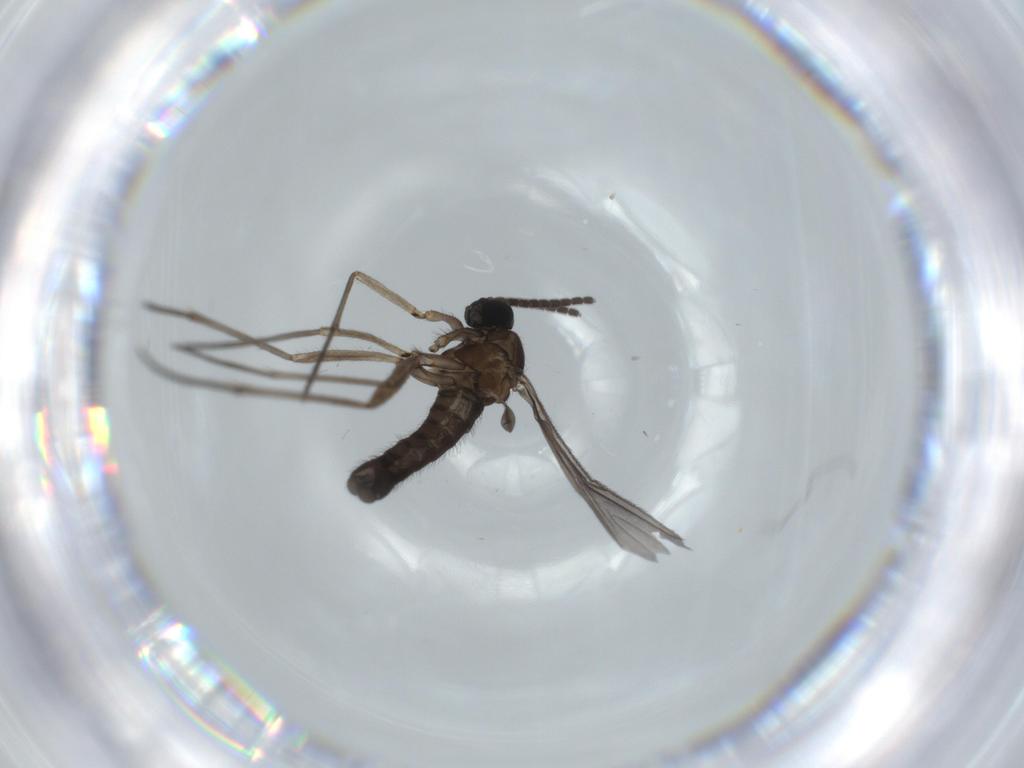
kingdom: Animalia
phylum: Arthropoda
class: Insecta
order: Diptera
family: Sciaridae
